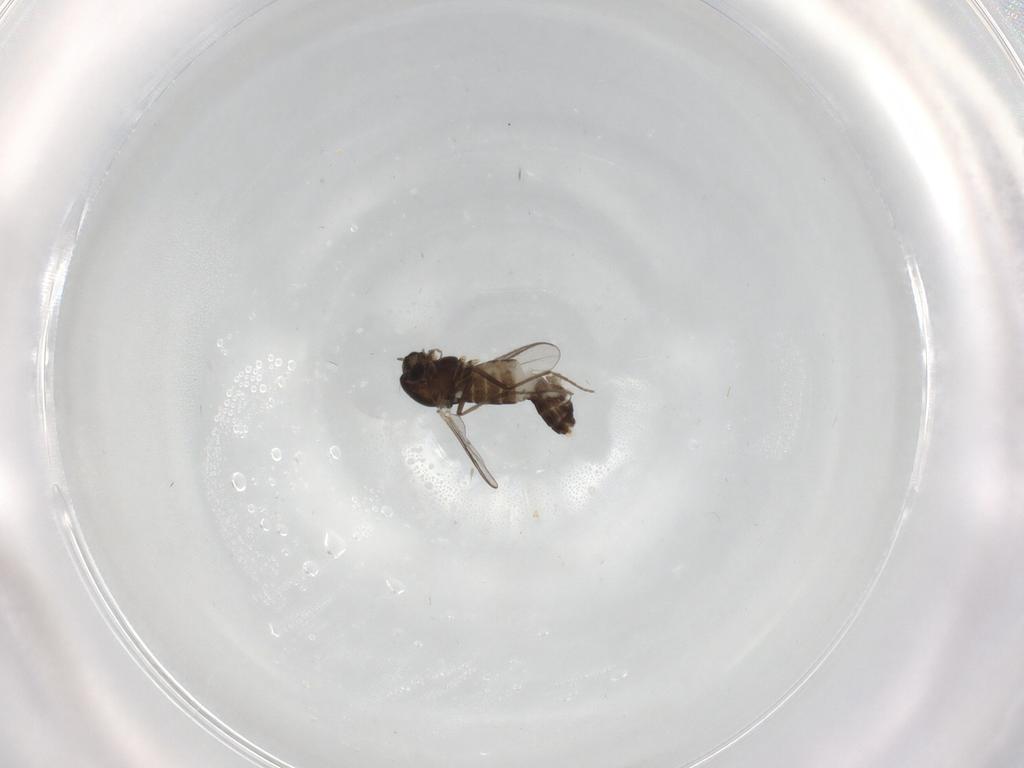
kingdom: Animalia
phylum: Arthropoda
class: Insecta
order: Diptera
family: Chironomidae
